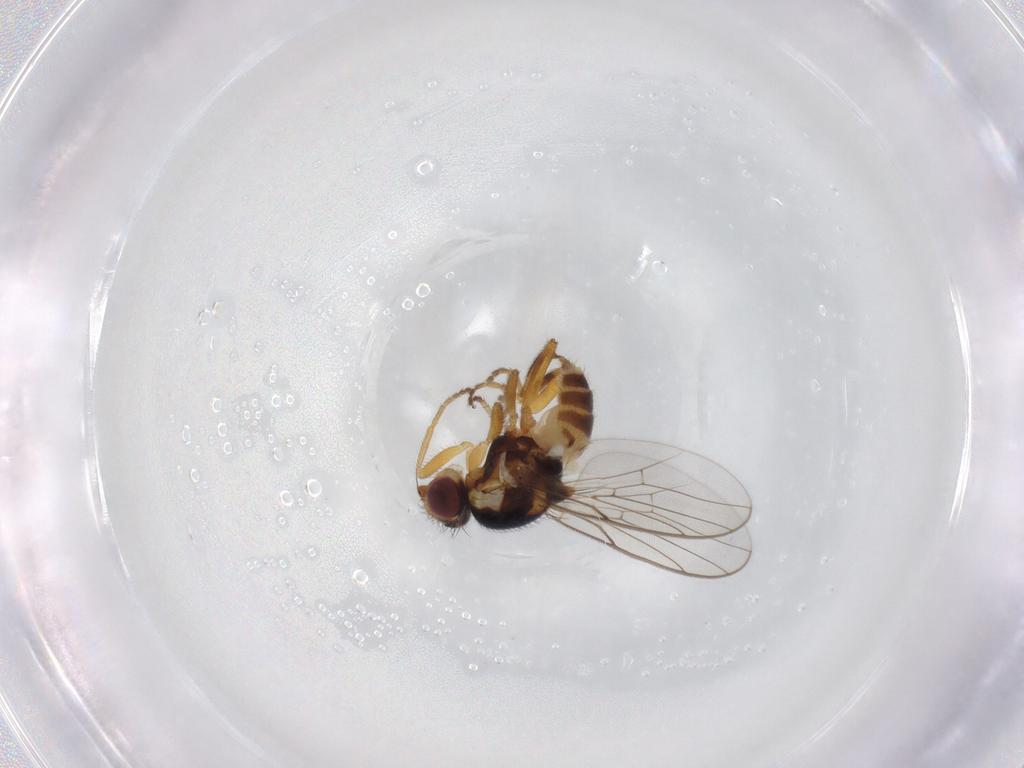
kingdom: Animalia
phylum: Arthropoda
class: Insecta
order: Diptera
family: Chloropidae
